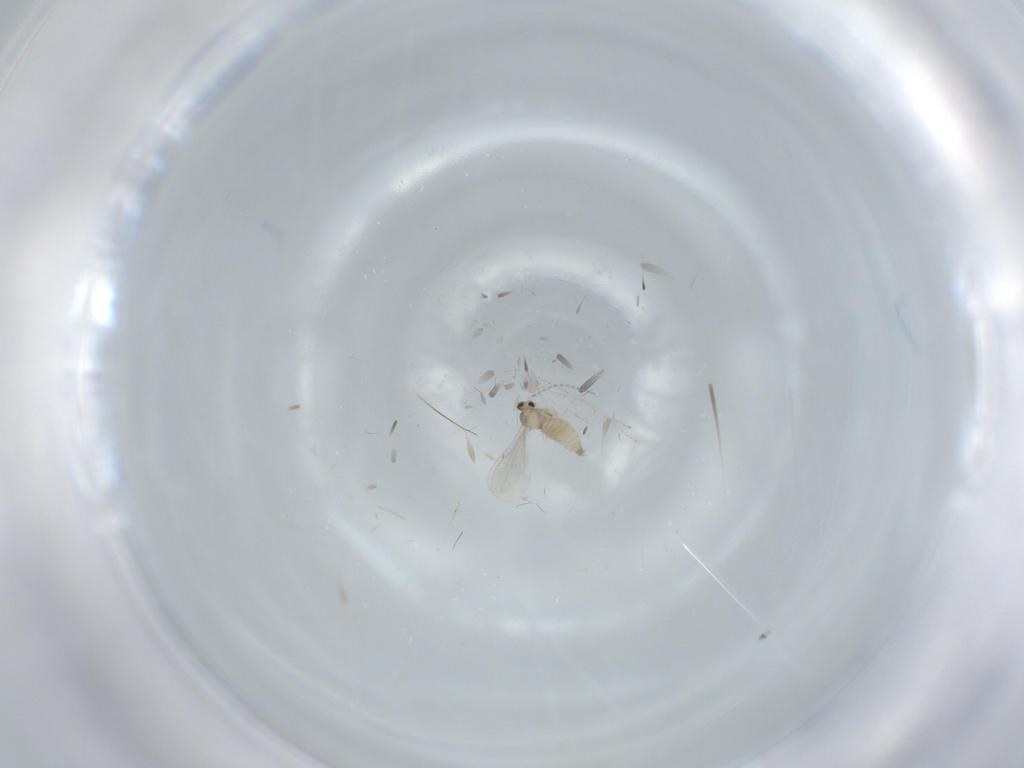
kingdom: Animalia
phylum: Arthropoda
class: Insecta
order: Diptera
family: Cecidomyiidae
